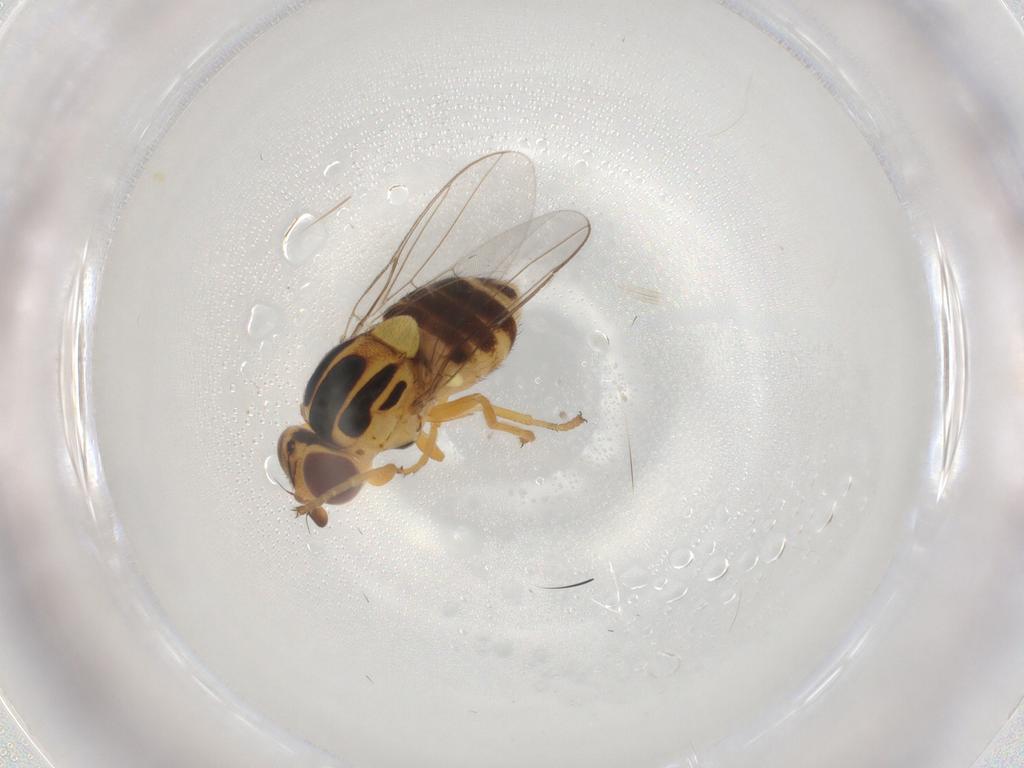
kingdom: Animalia
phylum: Arthropoda
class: Insecta
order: Diptera
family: Chloropidae
